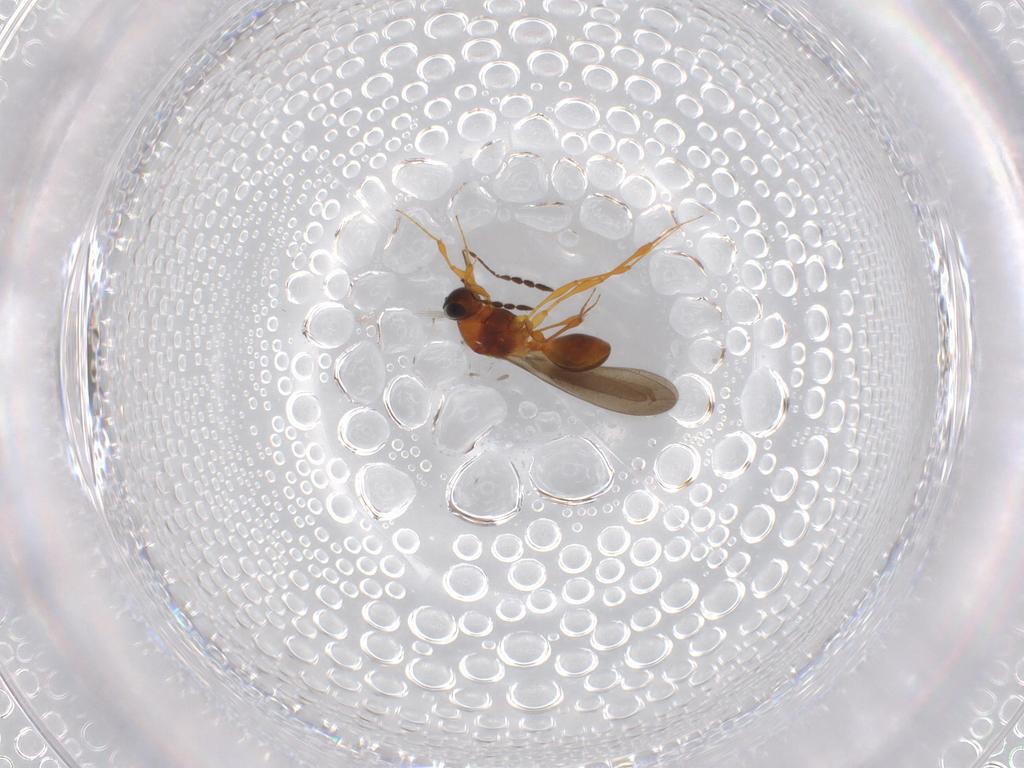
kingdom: Animalia
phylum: Arthropoda
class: Insecta
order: Hymenoptera
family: Platygastridae
